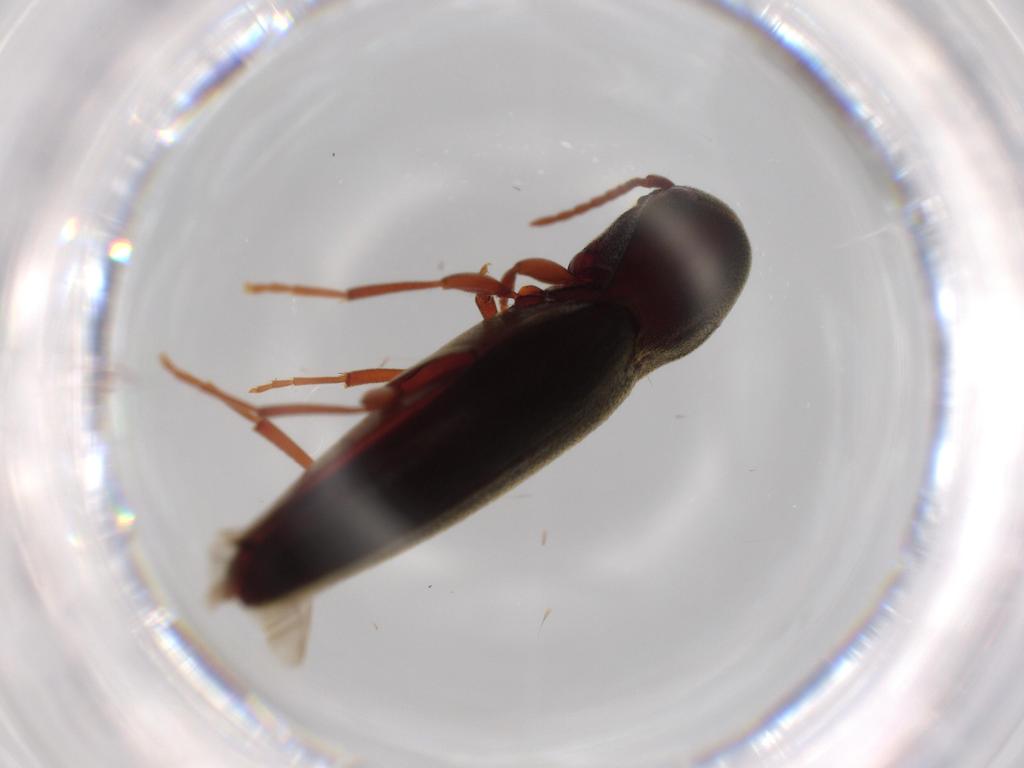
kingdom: Animalia
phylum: Arthropoda
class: Insecta
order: Coleoptera
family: Eucnemidae
